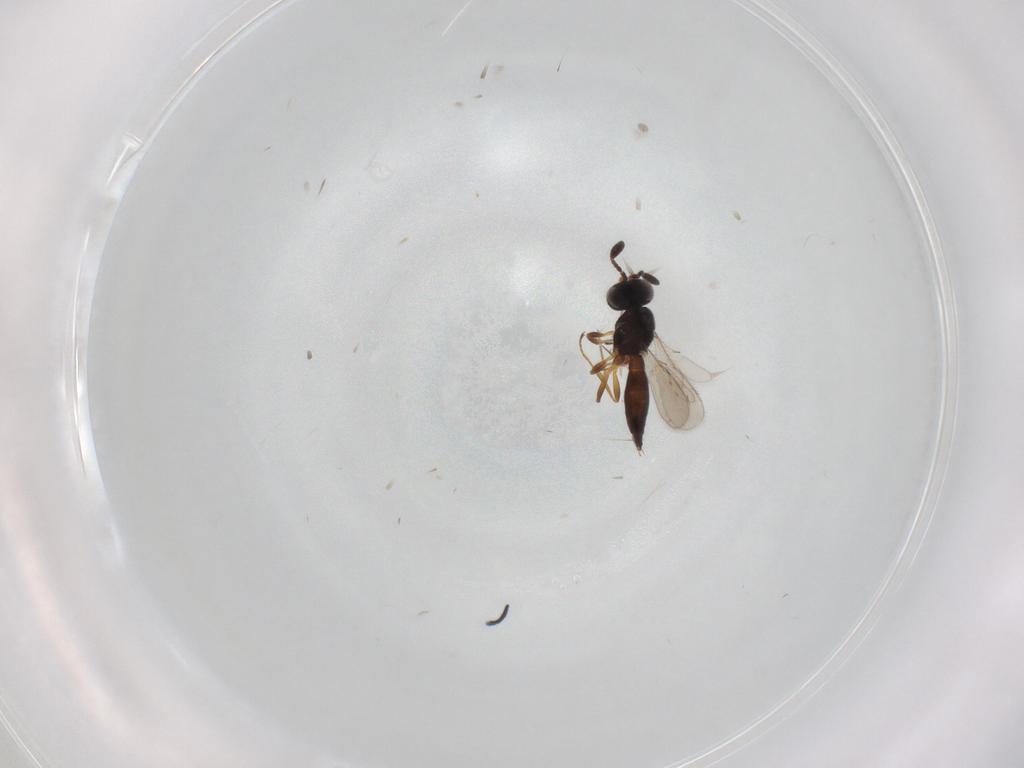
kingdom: Animalia
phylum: Arthropoda
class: Insecta
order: Hymenoptera
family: Scelionidae
